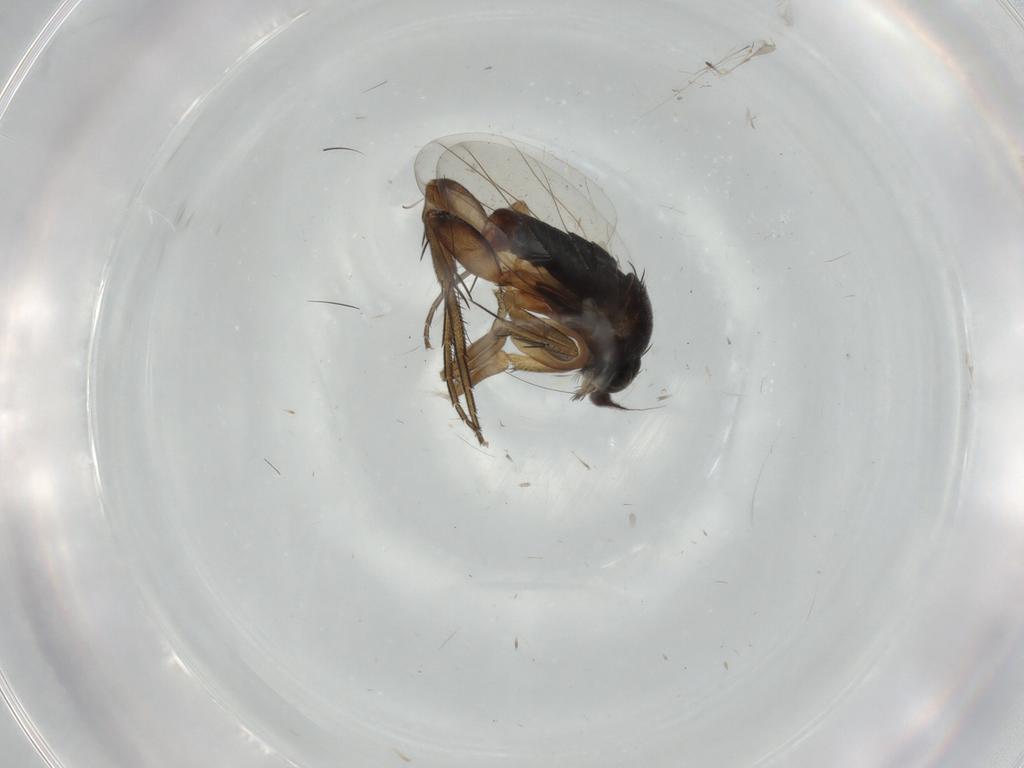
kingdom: Animalia
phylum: Arthropoda
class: Insecta
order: Diptera
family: Phoridae
